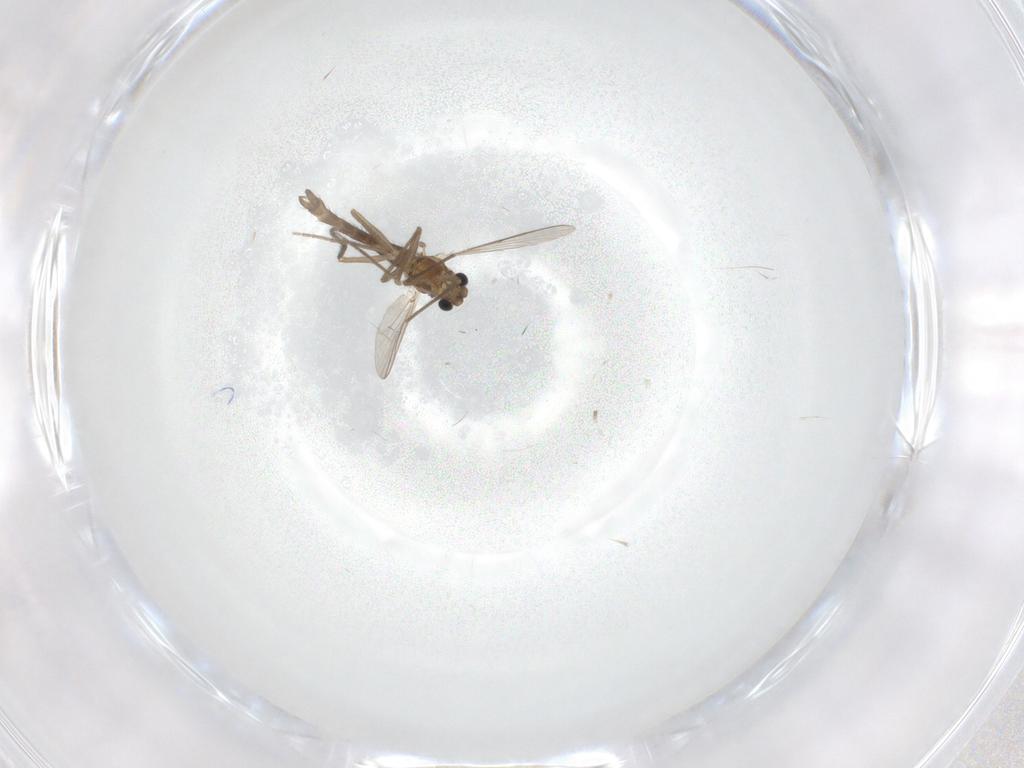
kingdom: Animalia
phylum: Arthropoda
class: Insecta
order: Diptera
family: Chironomidae
